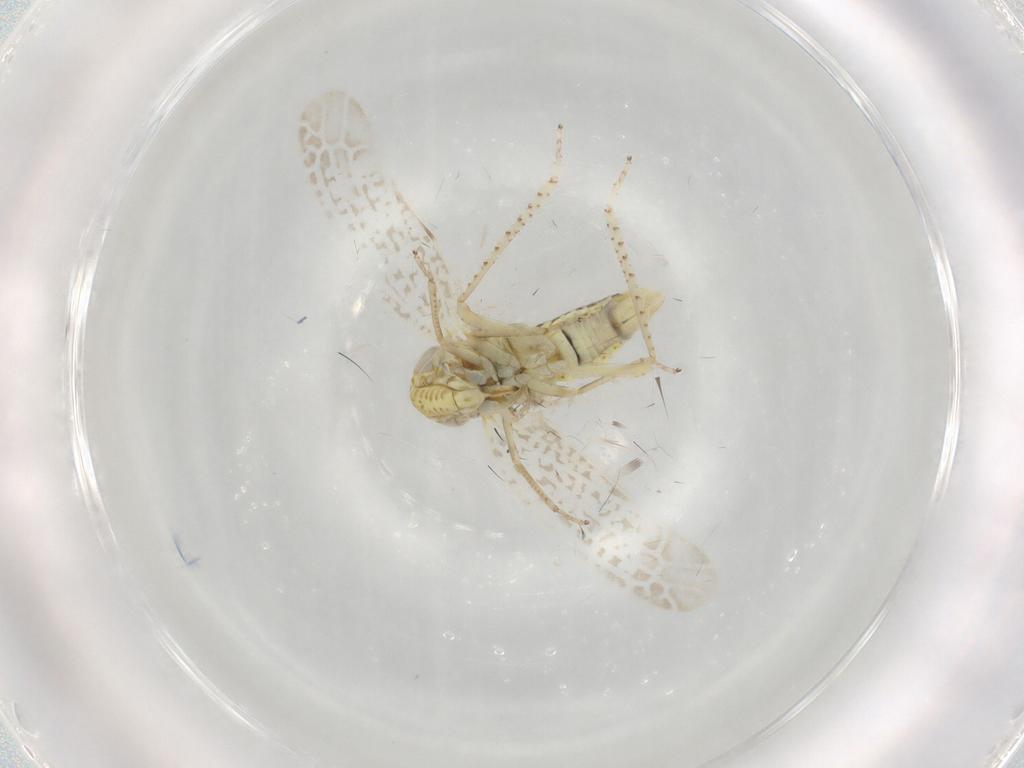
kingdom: Animalia
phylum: Arthropoda
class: Insecta
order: Hemiptera
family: Cicadellidae
